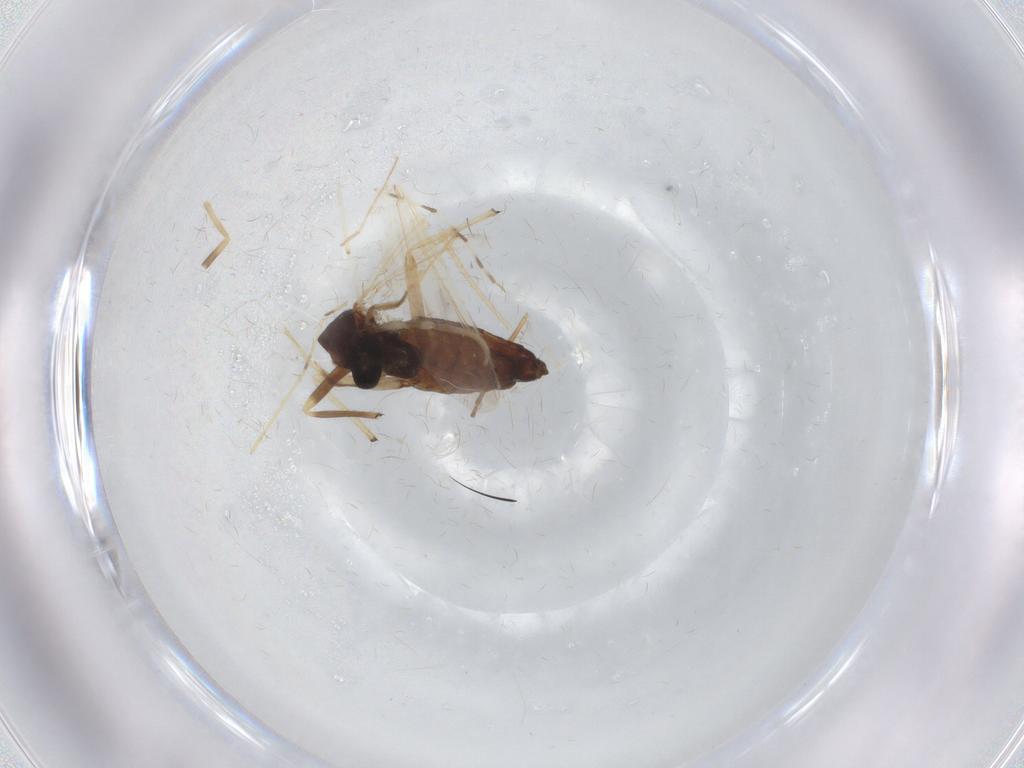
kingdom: Animalia
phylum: Arthropoda
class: Insecta
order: Diptera
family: Chironomidae
